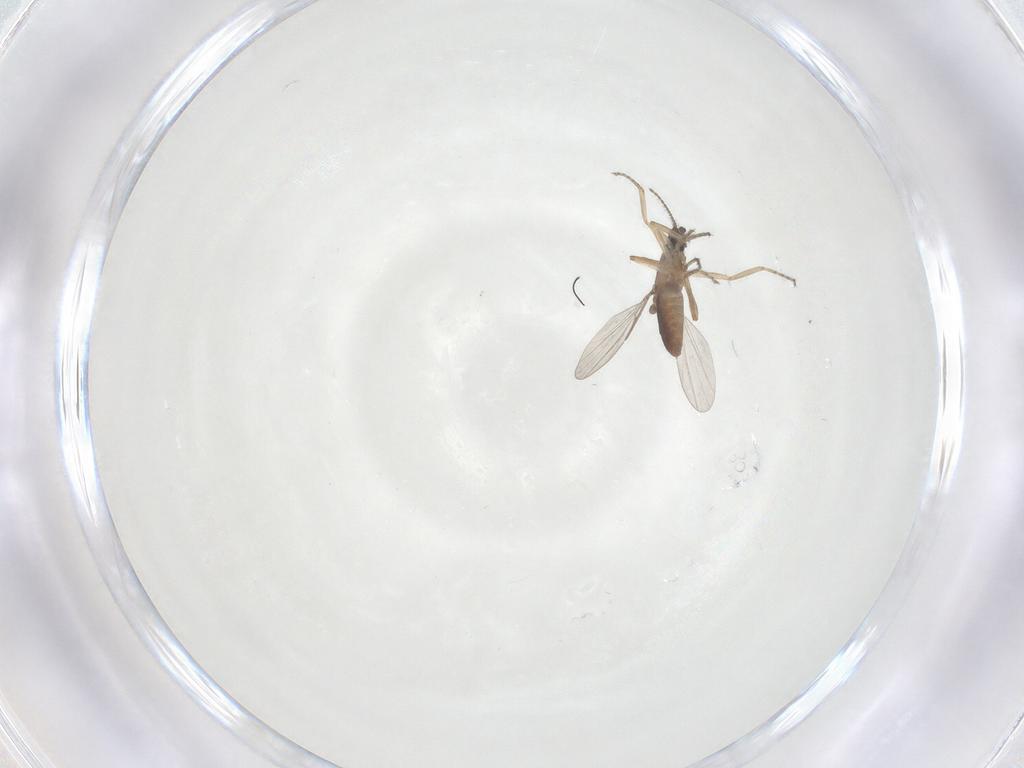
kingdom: Animalia
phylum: Arthropoda
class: Insecta
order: Diptera
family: Ceratopogonidae
